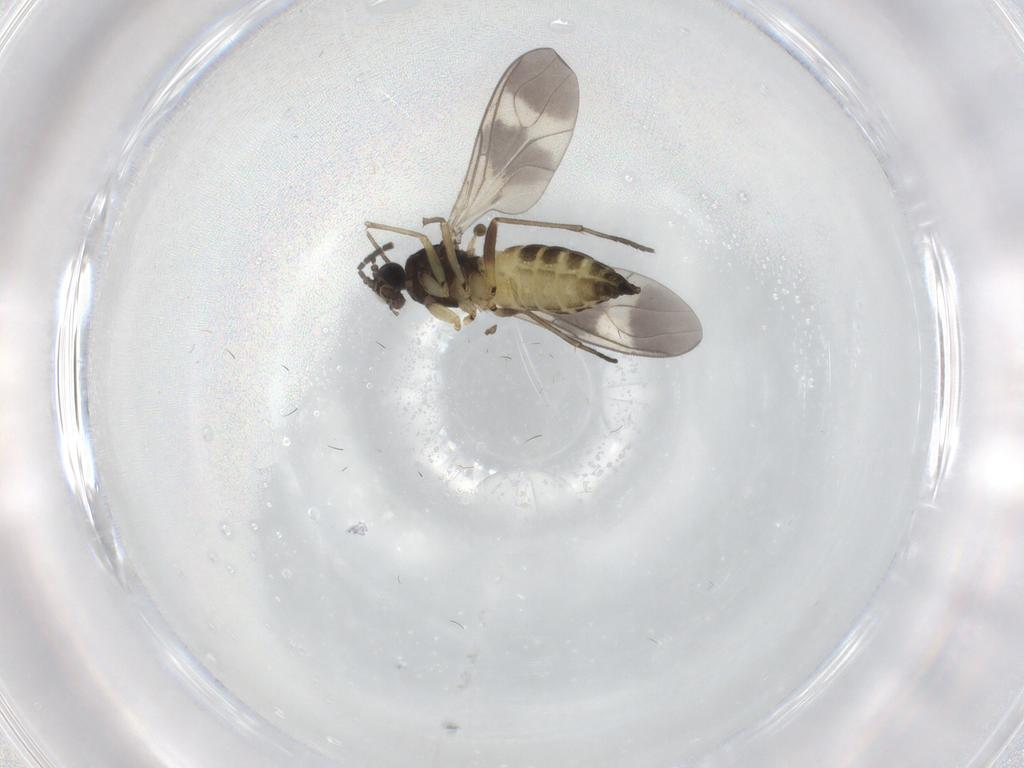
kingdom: Animalia
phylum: Arthropoda
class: Insecta
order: Diptera
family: Sciaridae
